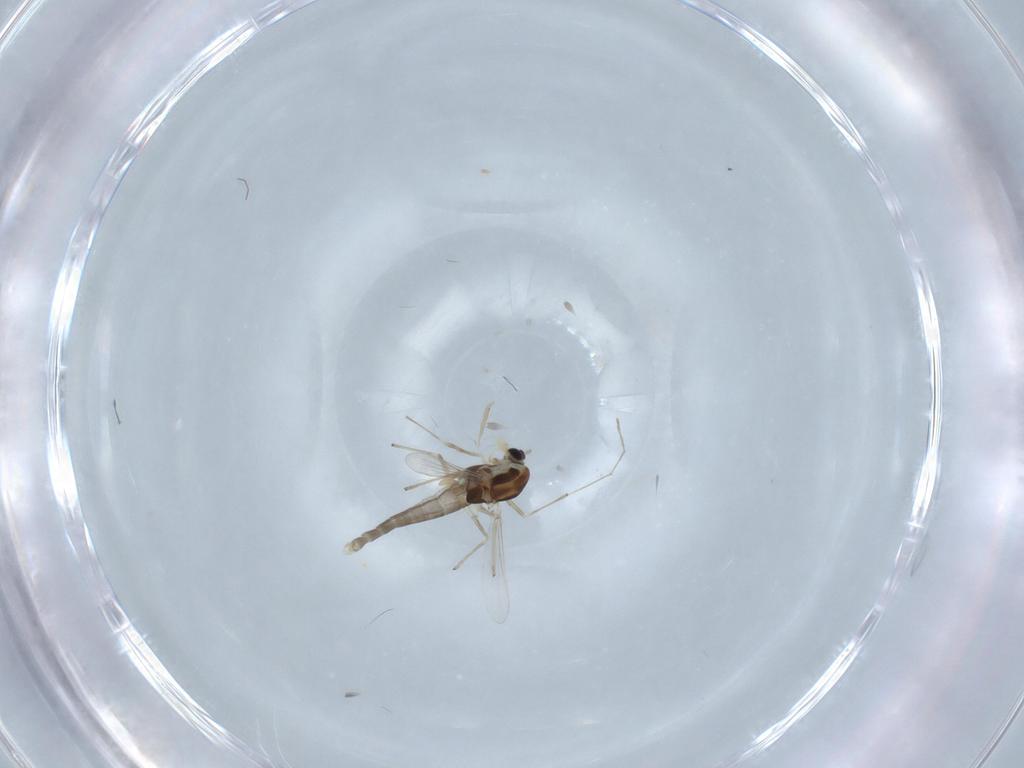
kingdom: Animalia
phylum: Arthropoda
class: Insecta
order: Diptera
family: Chironomidae
